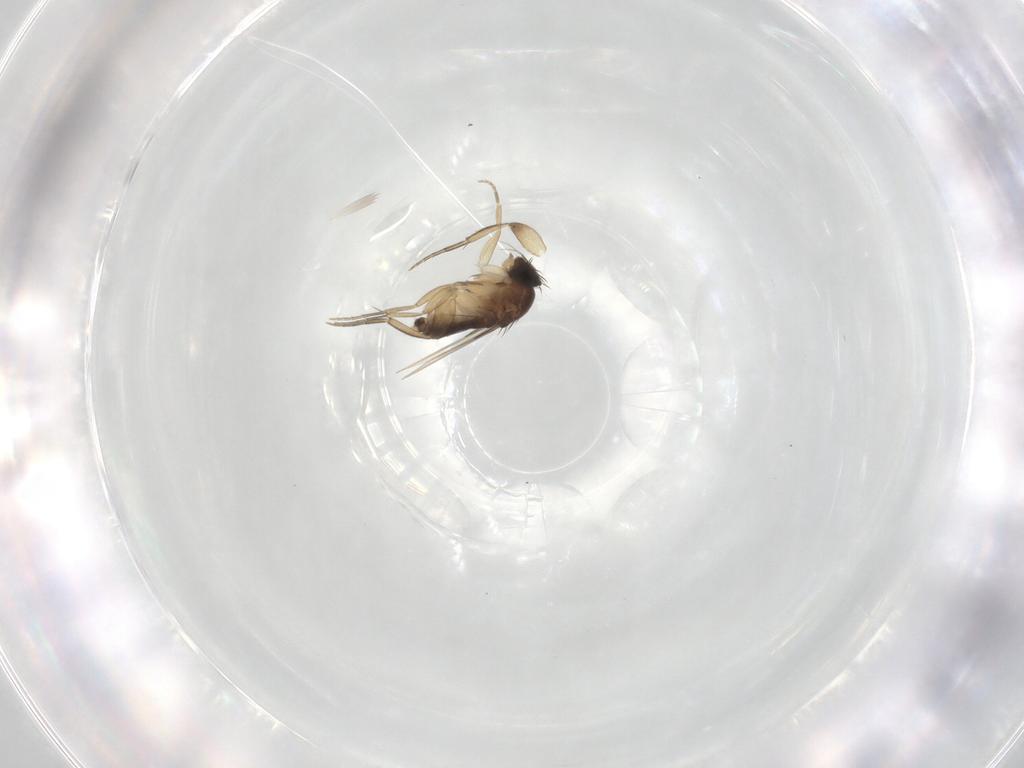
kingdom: Animalia
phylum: Arthropoda
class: Insecta
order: Diptera
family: Phoridae
